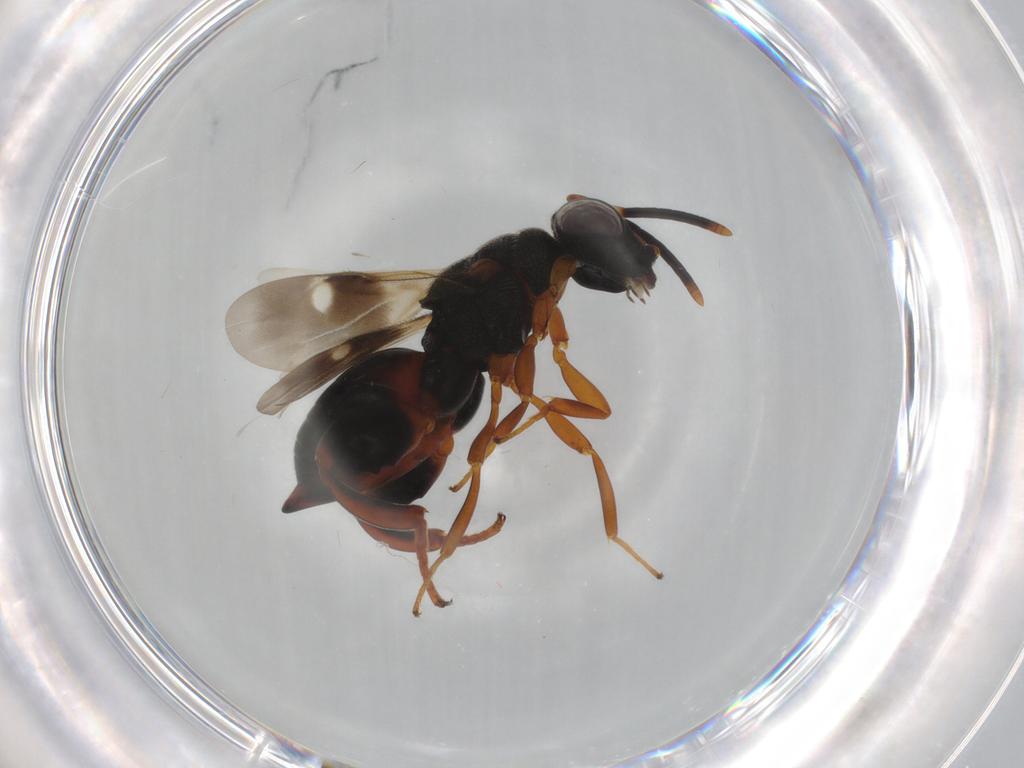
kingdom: Animalia
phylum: Arthropoda
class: Insecta
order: Hymenoptera
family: Chalcididae
